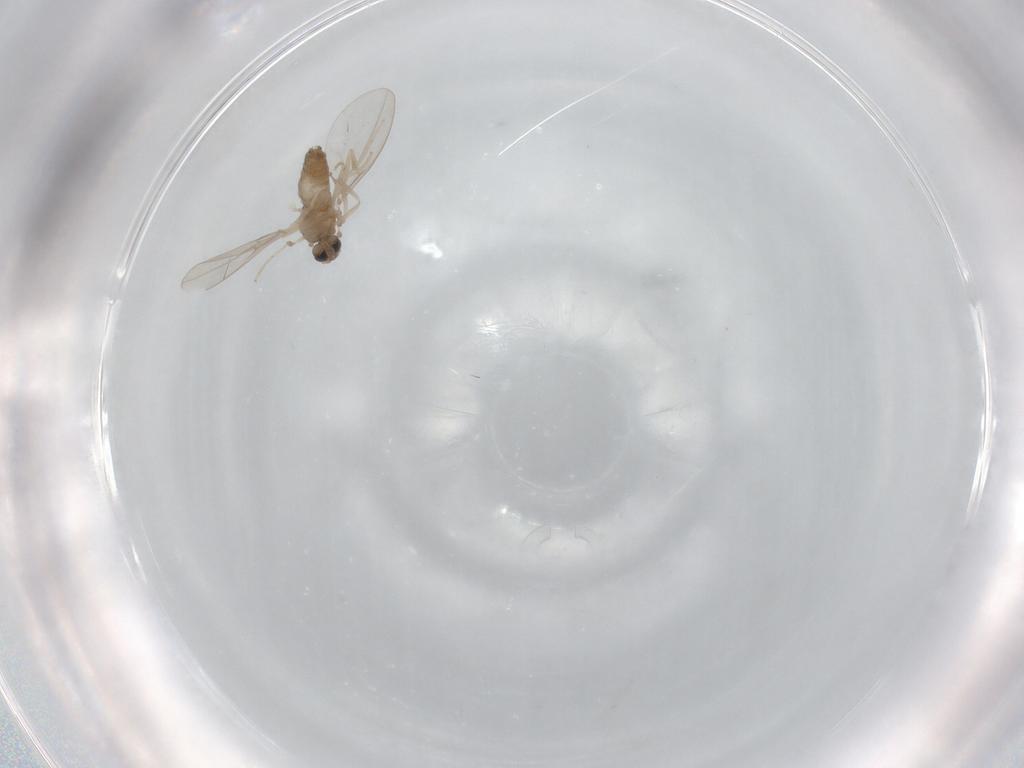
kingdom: Animalia
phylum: Arthropoda
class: Insecta
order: Diptera
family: Cecidomyiidae
